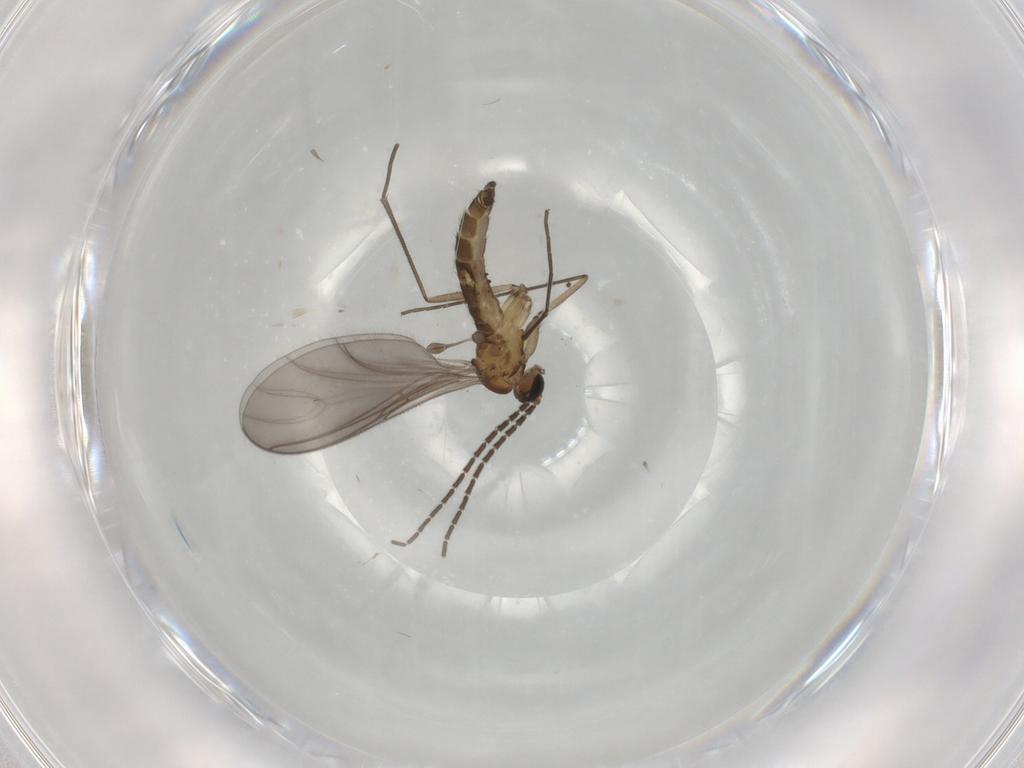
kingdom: Animalia
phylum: Arthropoda
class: Insecta
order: Diptera
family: Sciaridae
